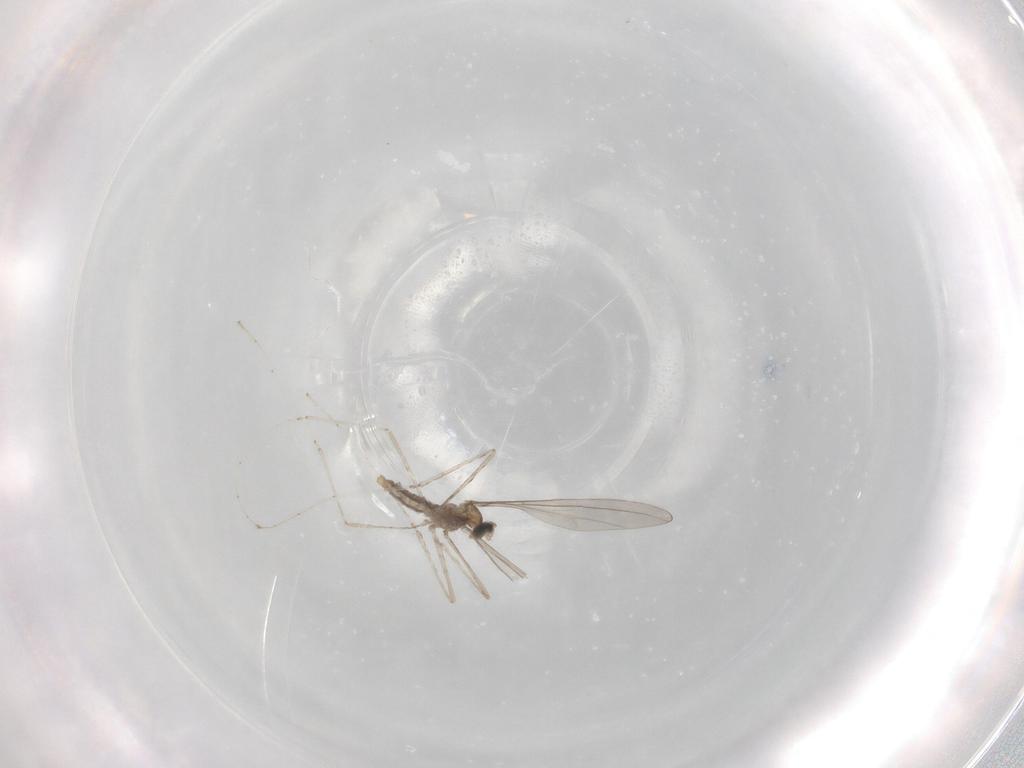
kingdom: Animalia
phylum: Arthropoda
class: Insecta
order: Diptera
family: Cecidomyiidae
